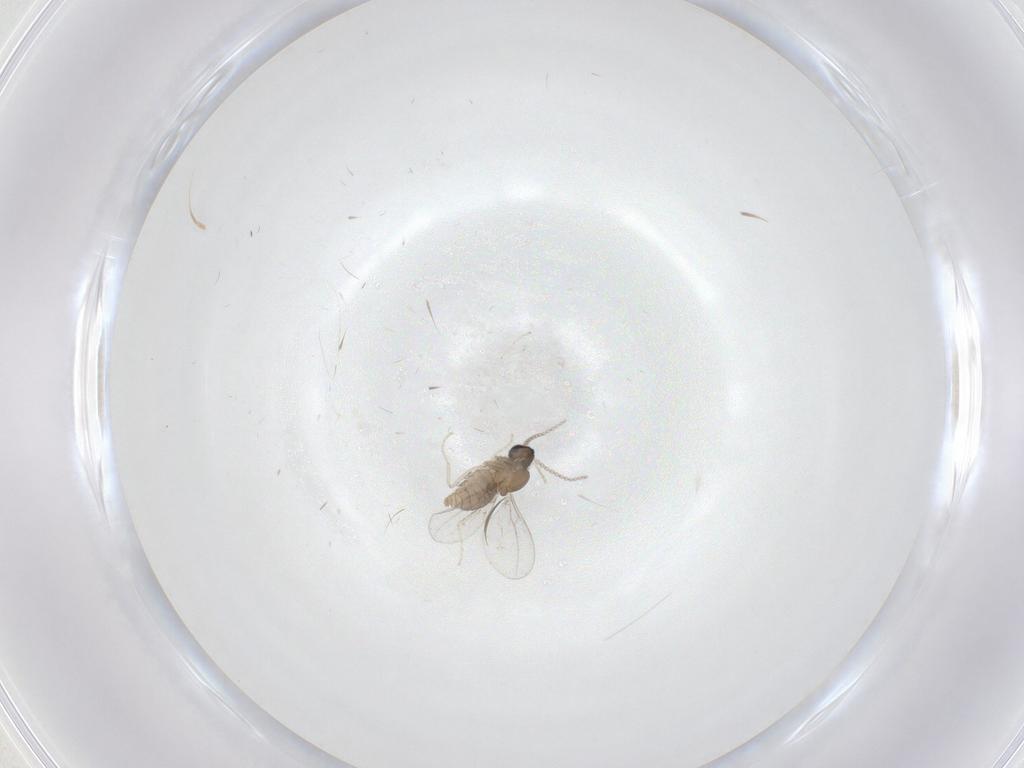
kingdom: Animalia
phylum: Arthropoda
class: Insecta
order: Diptera
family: Cecidomyiidae
